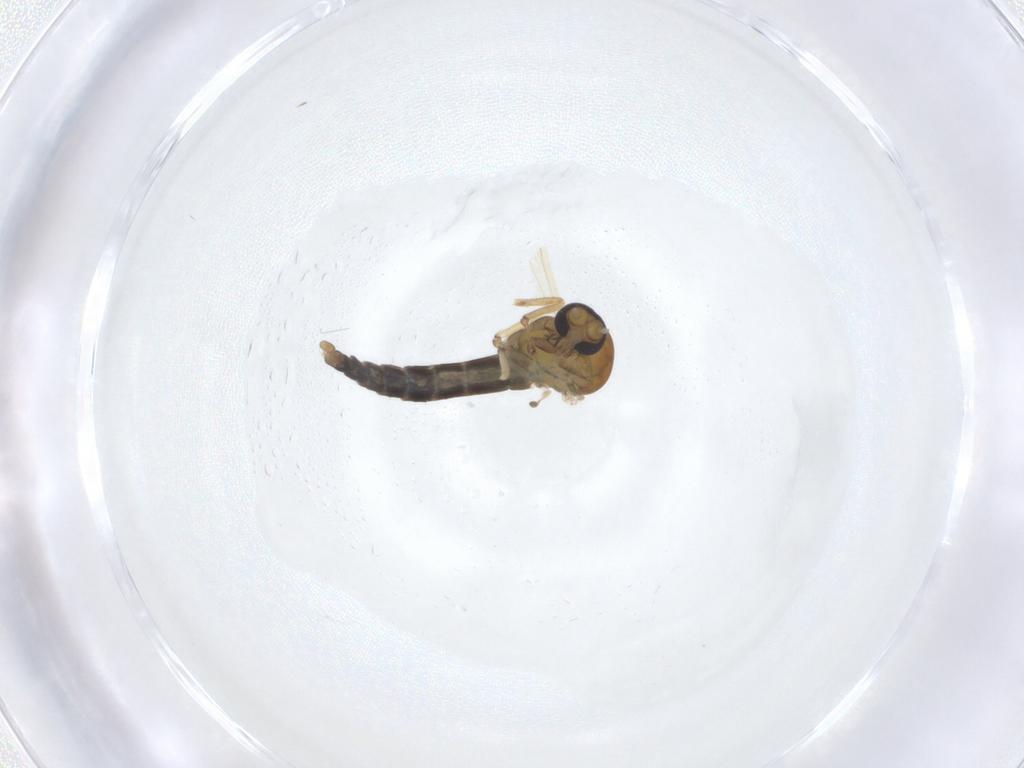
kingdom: Animalia
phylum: Arthropoda
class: Insecta
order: Diptera
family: Ceratopogonidae
